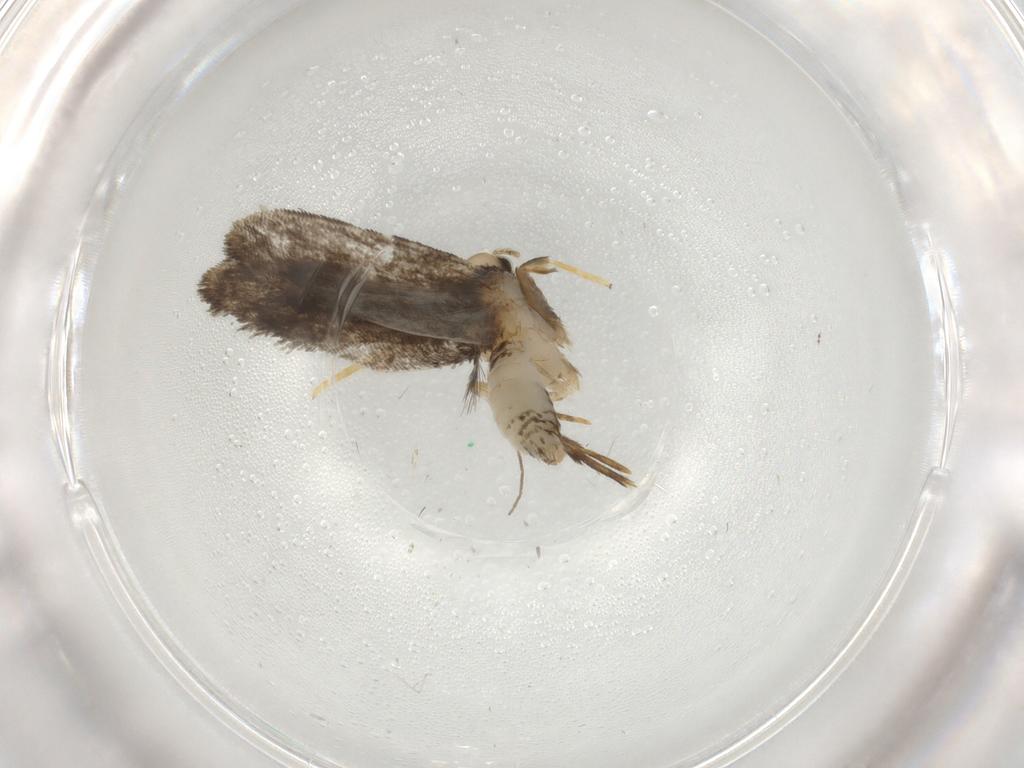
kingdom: Animalia
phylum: Arthropoda
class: Insecta
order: Lepidoptera
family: Psychidae
